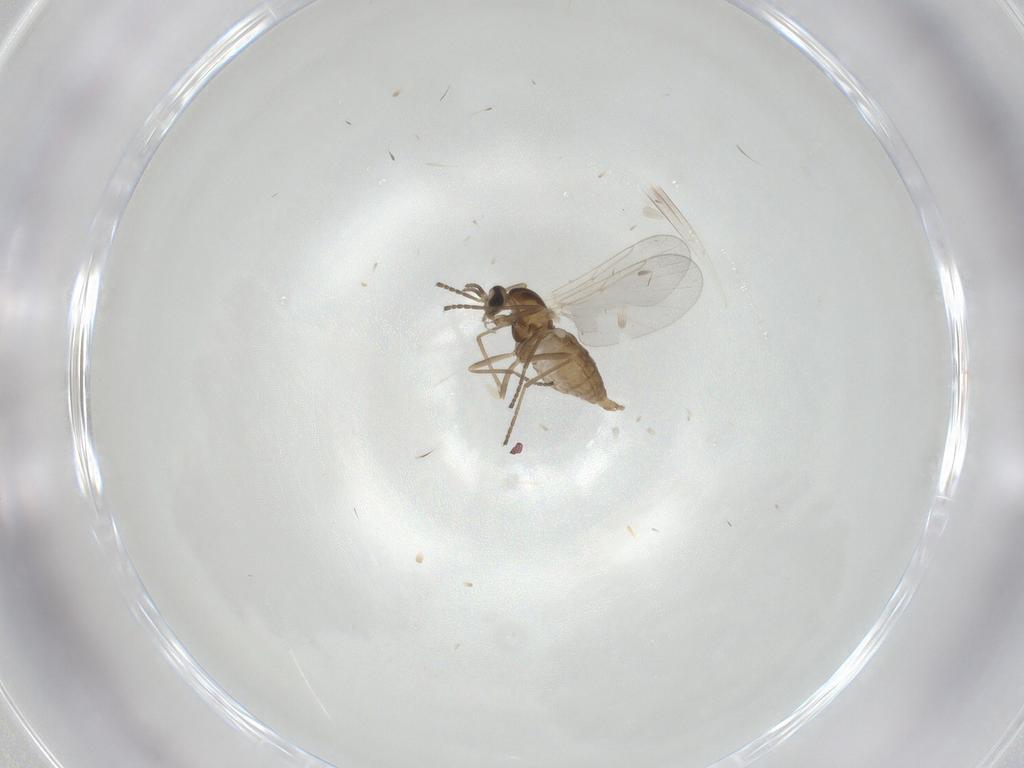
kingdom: Animalia
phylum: Arthropoda
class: Insecta
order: Diptera
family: Cecidomyiidae
